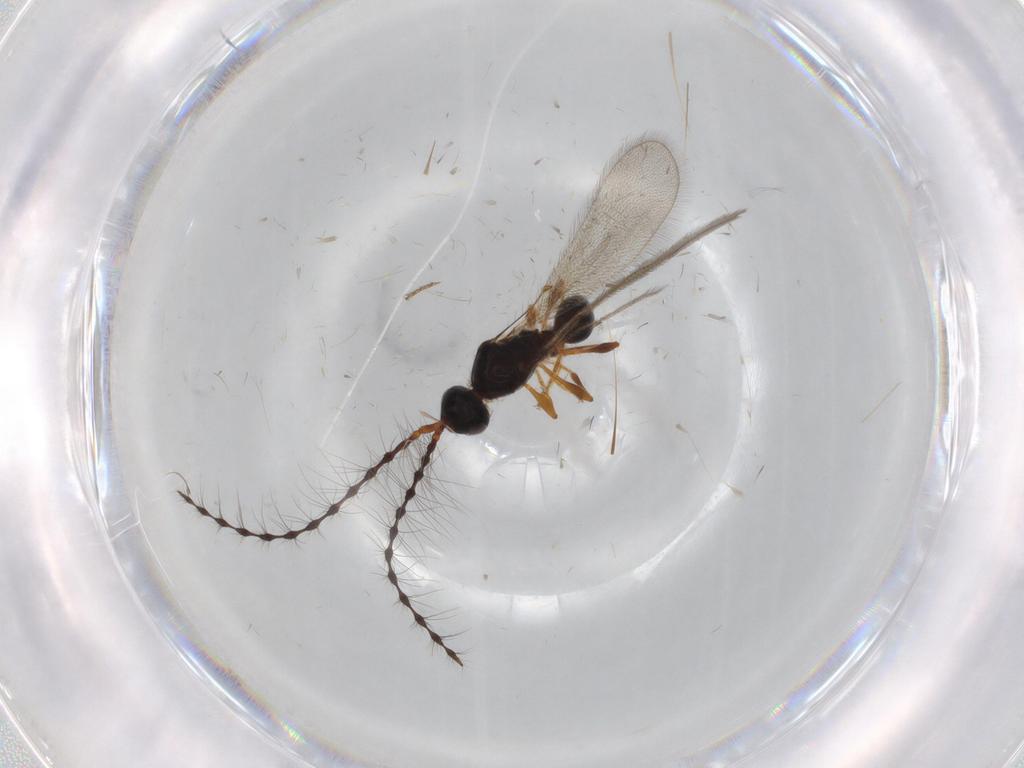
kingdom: Animalia
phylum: Arthropoda
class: Insecta
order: Hymenoptera
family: Diapriidae
